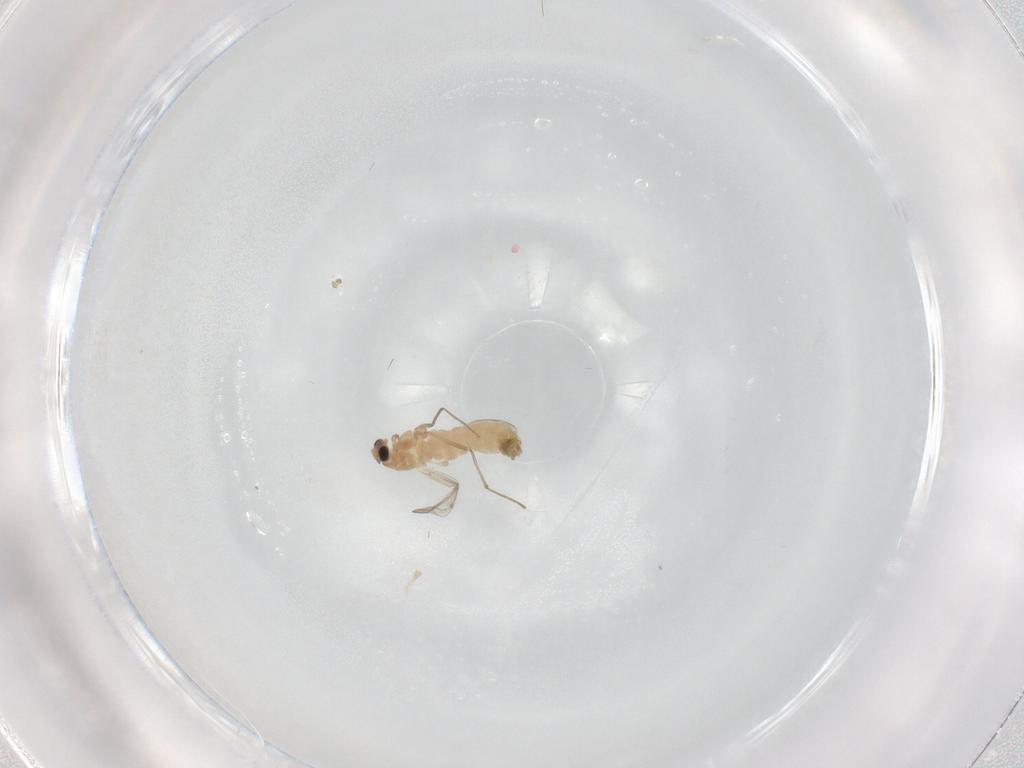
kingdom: Animalia
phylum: Arthropoda
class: Insecta
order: Diptera
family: Chironomidae
